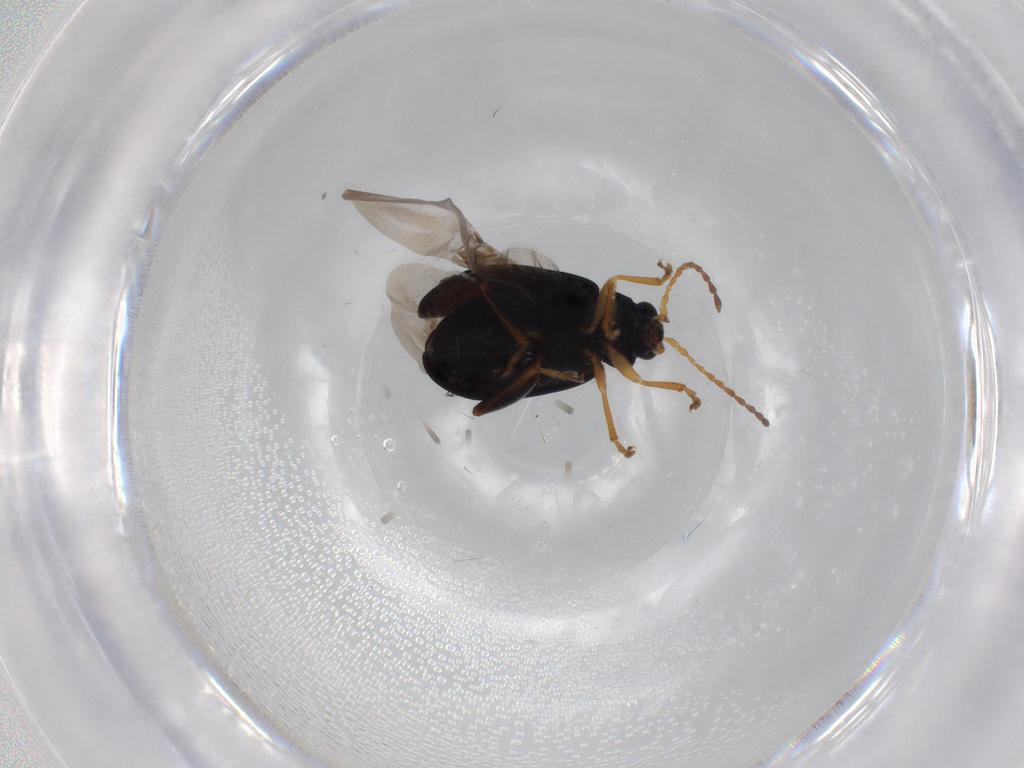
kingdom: Animalia
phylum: Arthropoda
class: Insecta
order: Coleoptera
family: Chrysomelidae
